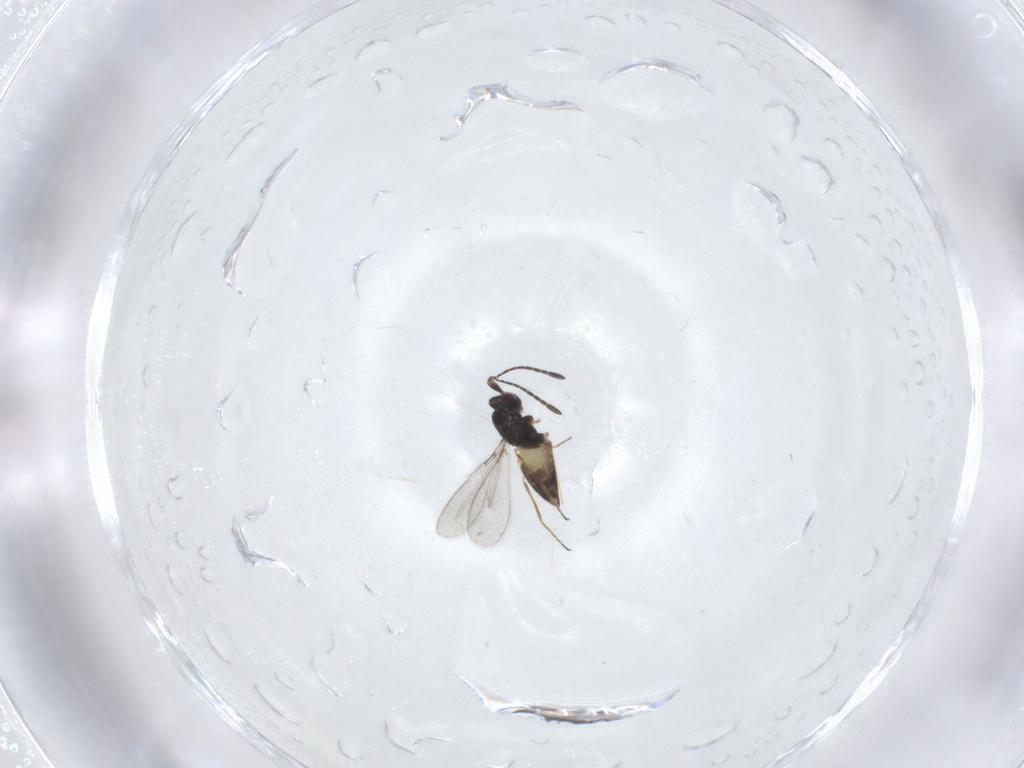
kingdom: Animalia
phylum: Arthropoda
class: Insecta
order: Hymenoptera
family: Mymaridae
